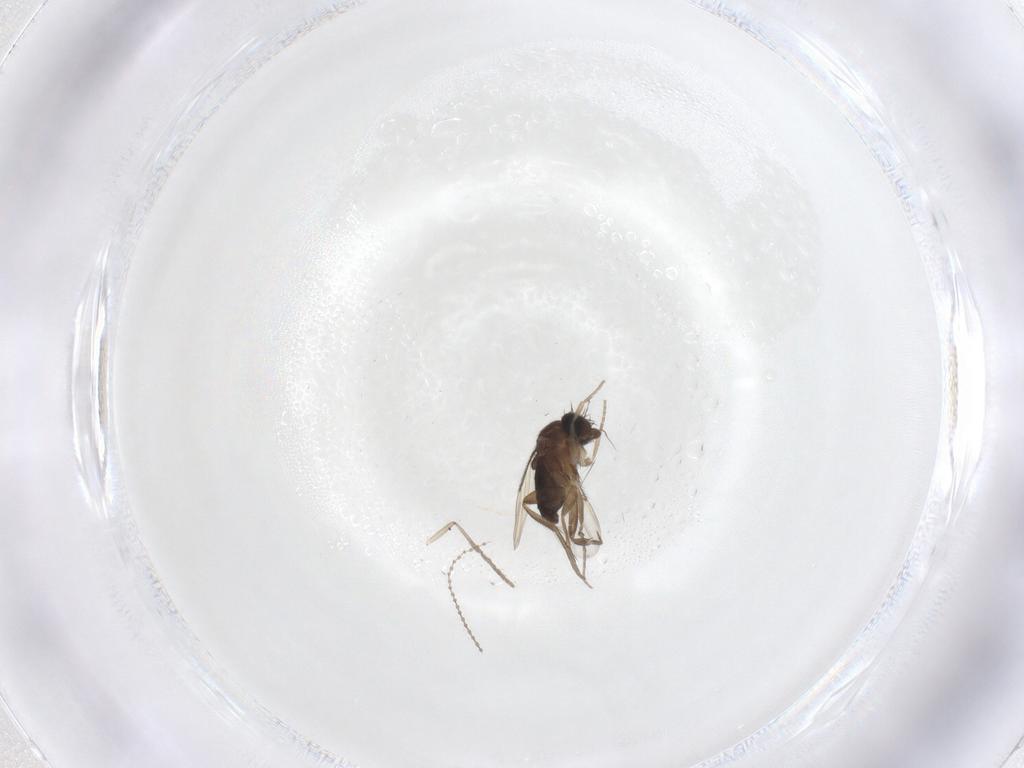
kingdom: Animalia
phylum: Arthropoda
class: Insecta
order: Diptera
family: Phoridae
